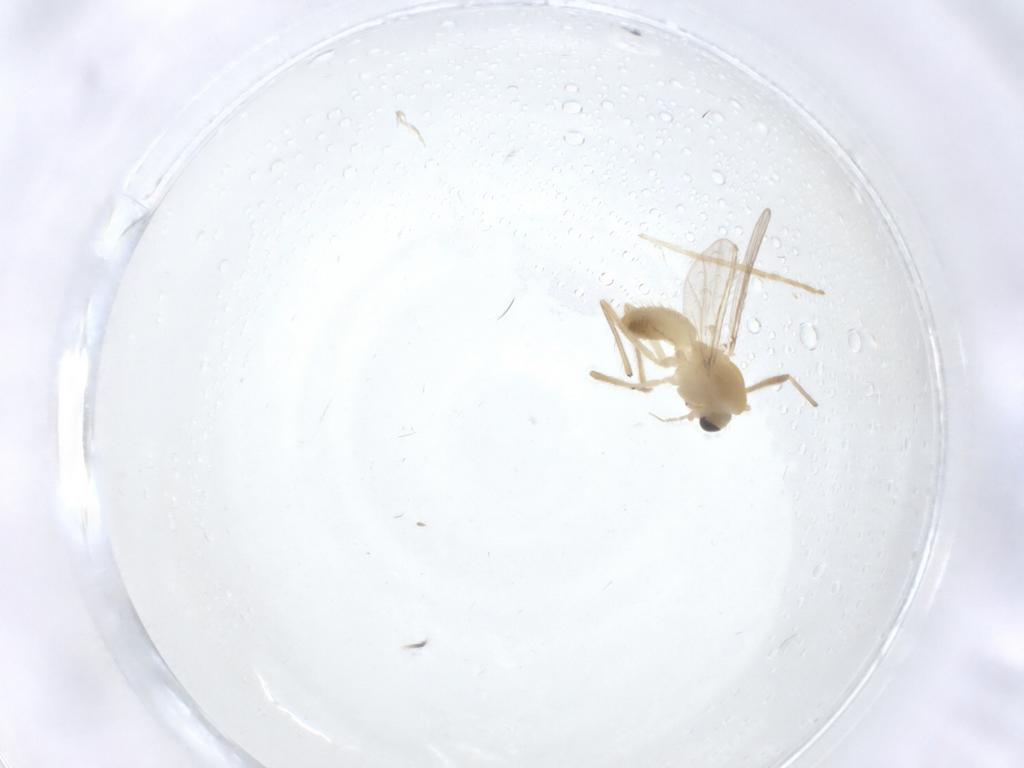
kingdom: Animalia
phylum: Arthropoda
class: Insecta
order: Diptera
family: Chironomidae
